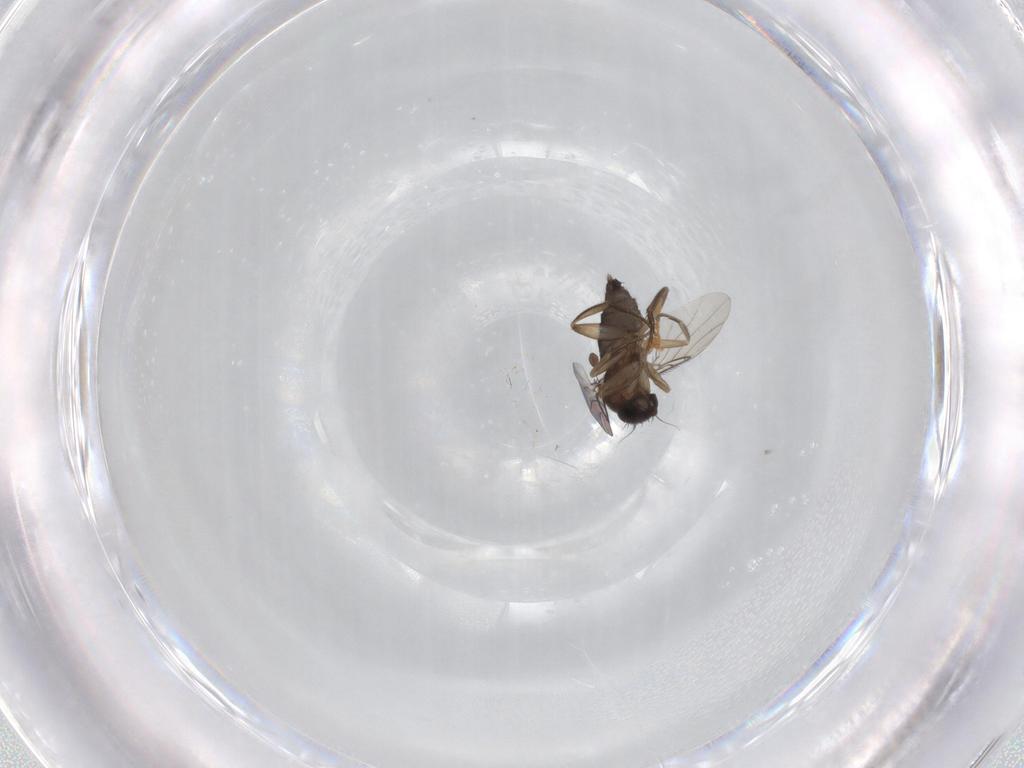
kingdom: Animalia
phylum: Arthropoda
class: Insecta
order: Diptera
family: Phoridae
